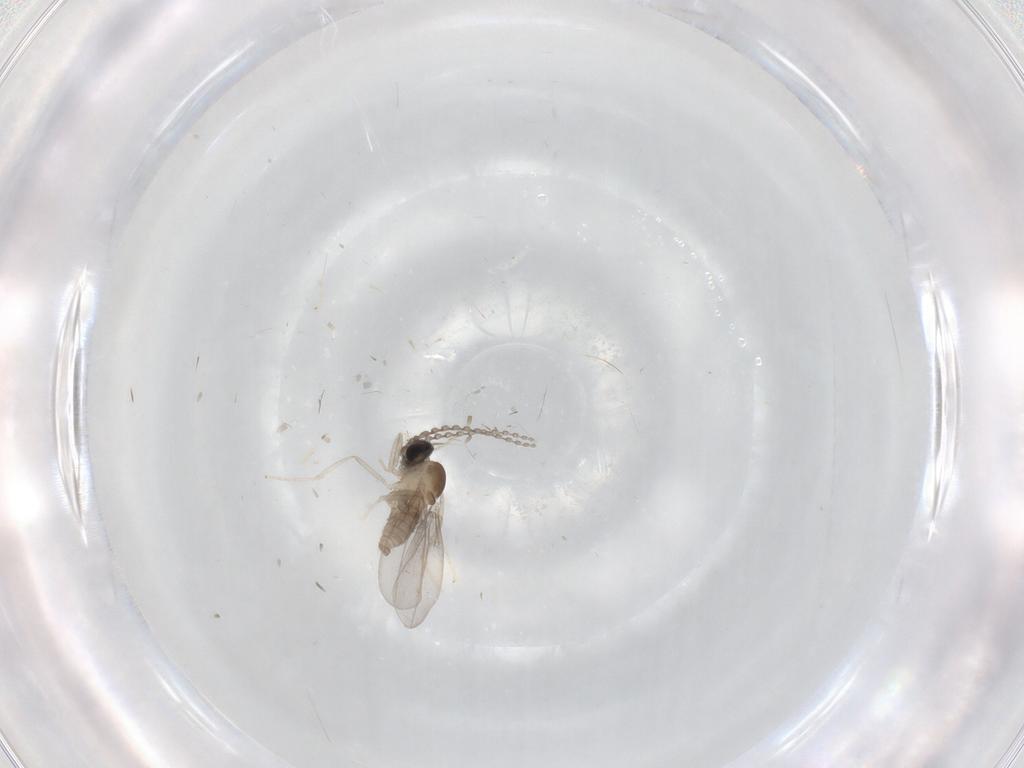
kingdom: Animalia
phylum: Arthropoda
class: Insecta
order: Diptera
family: Chironomidae
